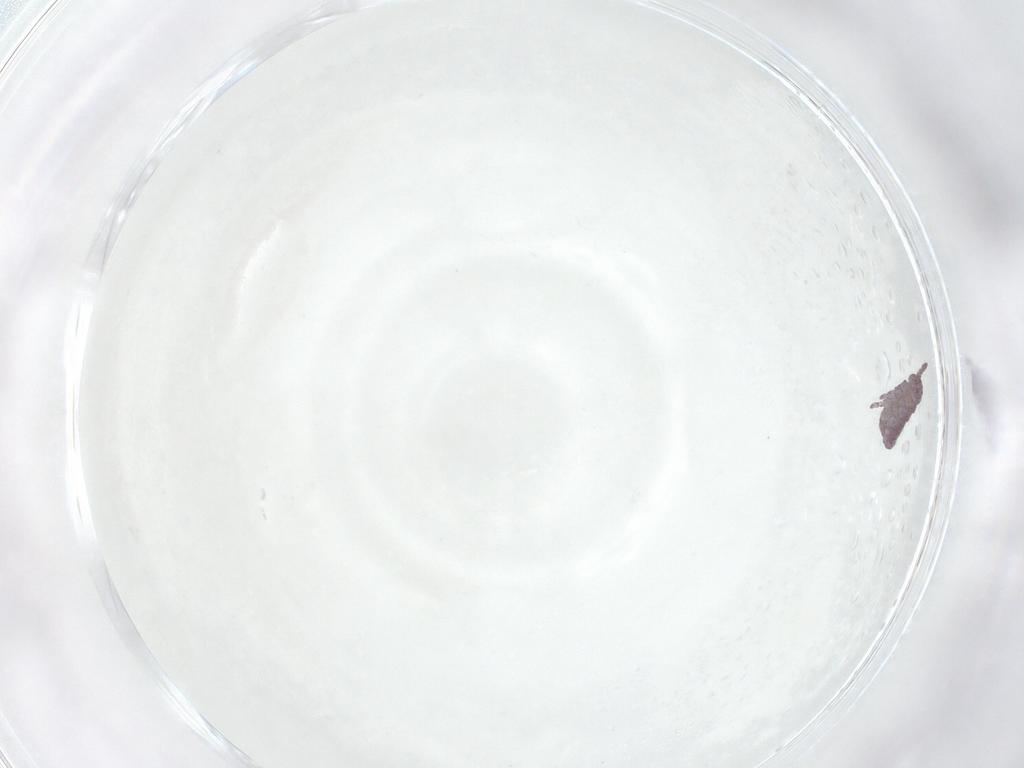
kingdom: Animalia
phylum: Arthropoda
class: Collembola
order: Poduromorpha
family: Hypogastruridae
